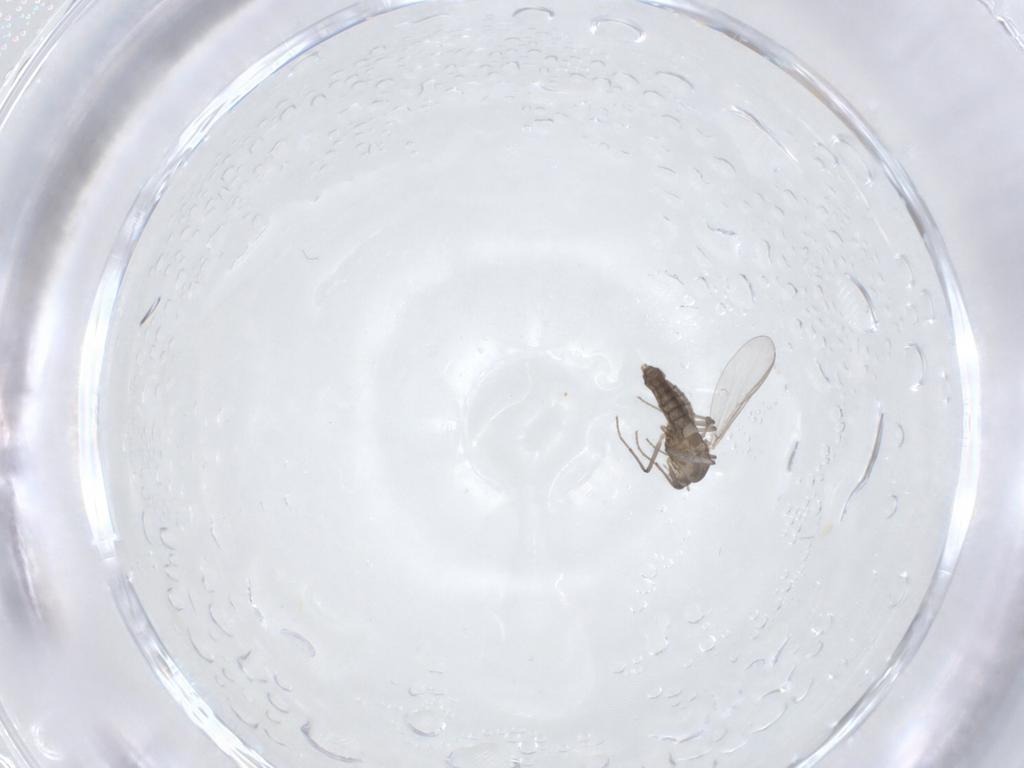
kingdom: Animalia
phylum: Arthropoda
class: Insecta
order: Diptera
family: Chironomidae
